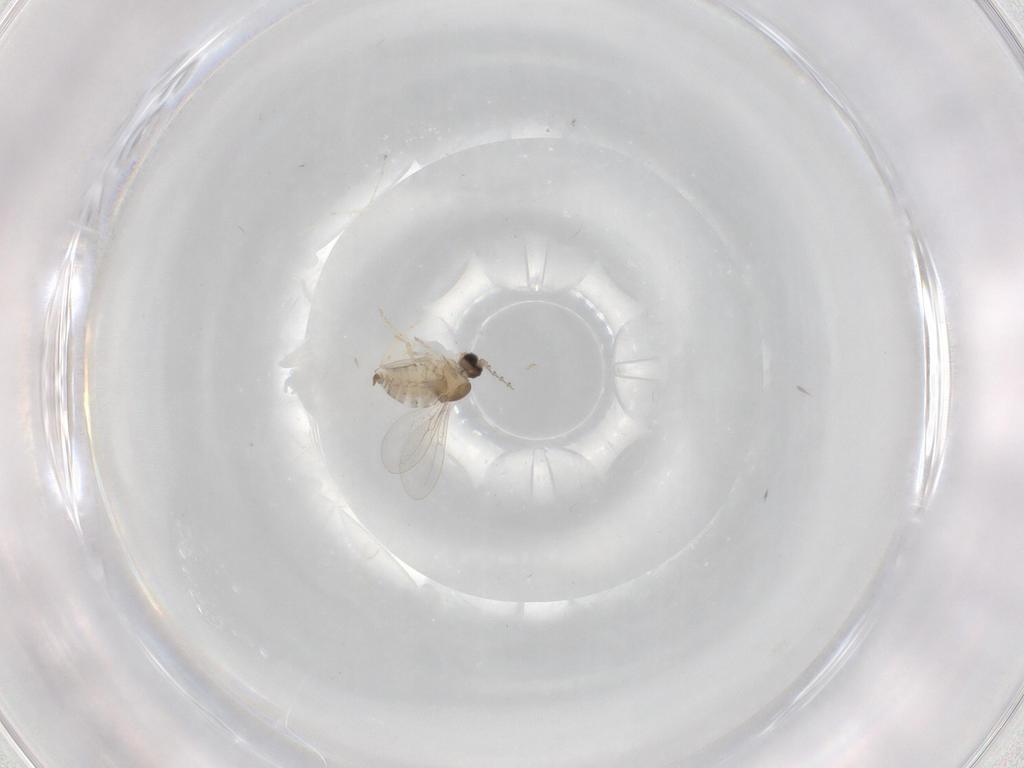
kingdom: Animalia
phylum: Arthropoda
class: Insecta
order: Diptera
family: Cecidomyiidae
